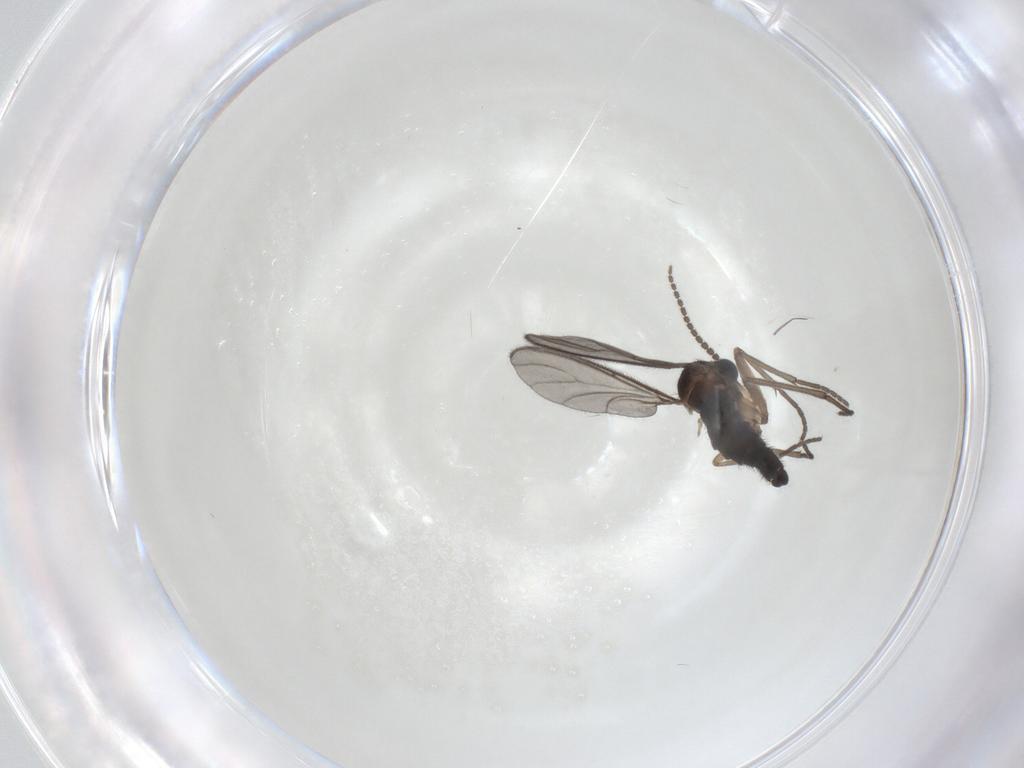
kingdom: Animalia
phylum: Arthropoda
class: Insecta
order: Diptera
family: Sciaridae
